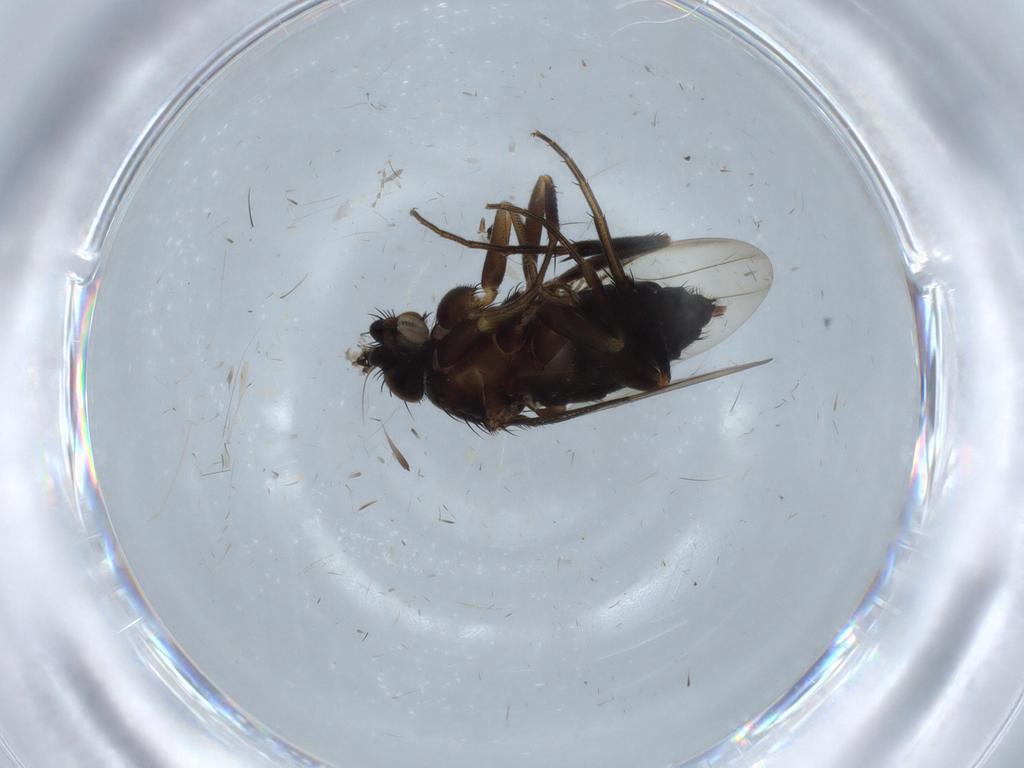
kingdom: Animalia
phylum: Arthropoda
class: Insecta
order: Diptera
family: Phoridae
